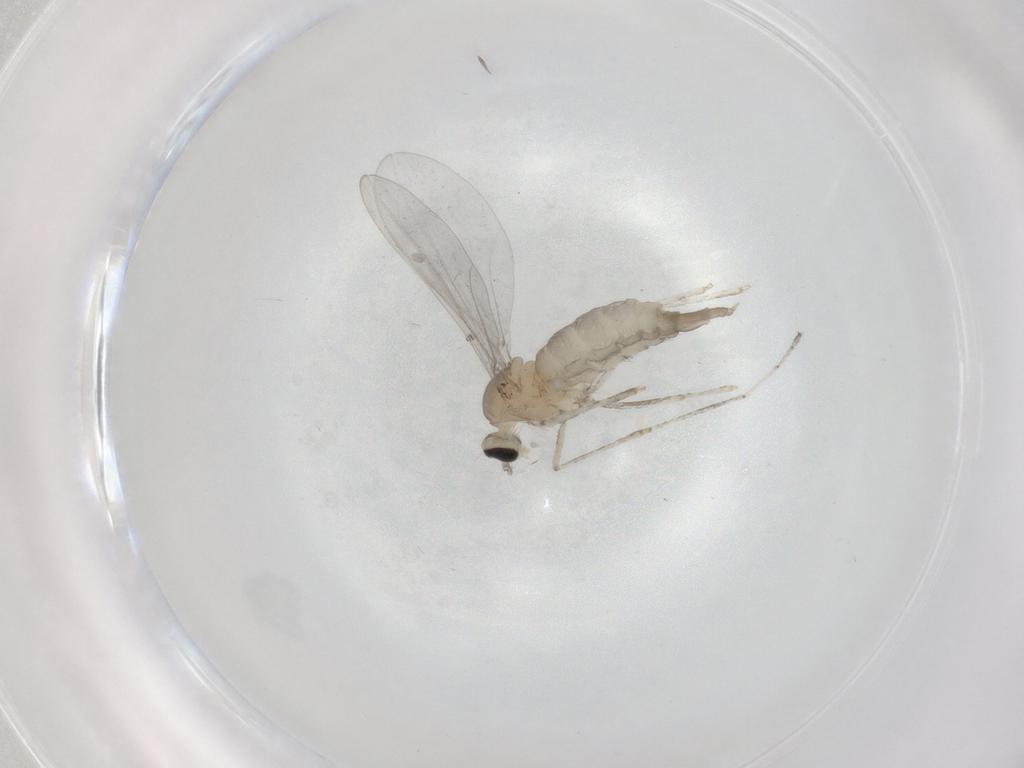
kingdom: Animalia
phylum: Arthropoda
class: Insecta
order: Diptera
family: Cecidomyiidae
